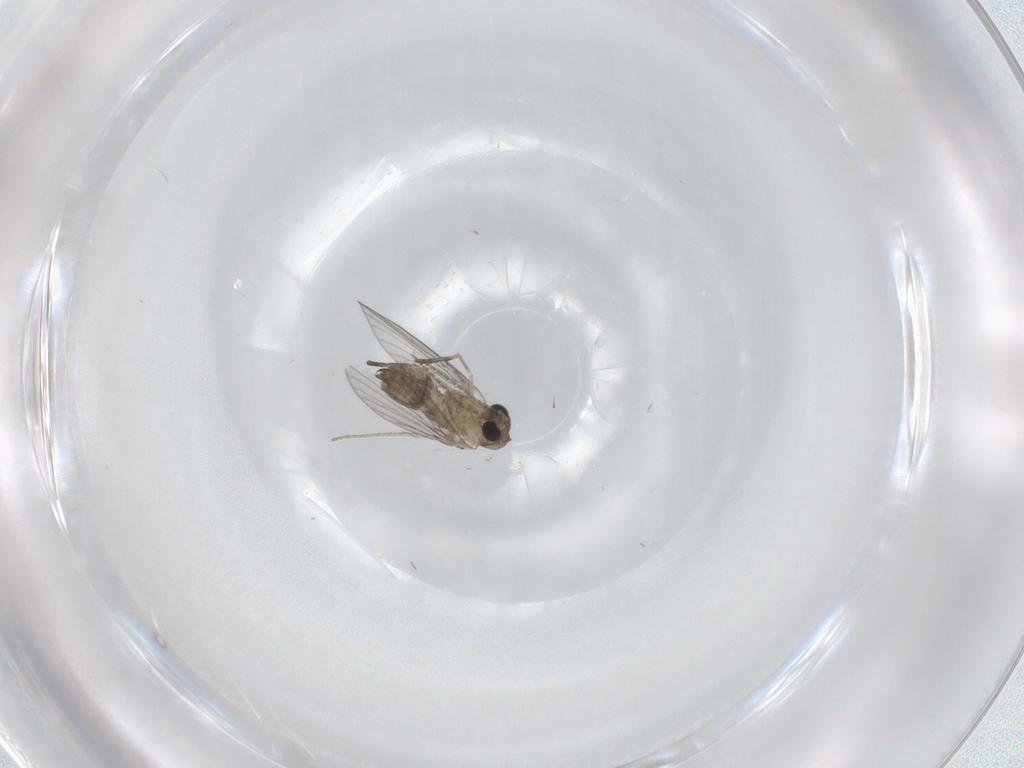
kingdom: Animalia
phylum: Arthropoda
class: Insecta
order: Diptera
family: Psychodidae
